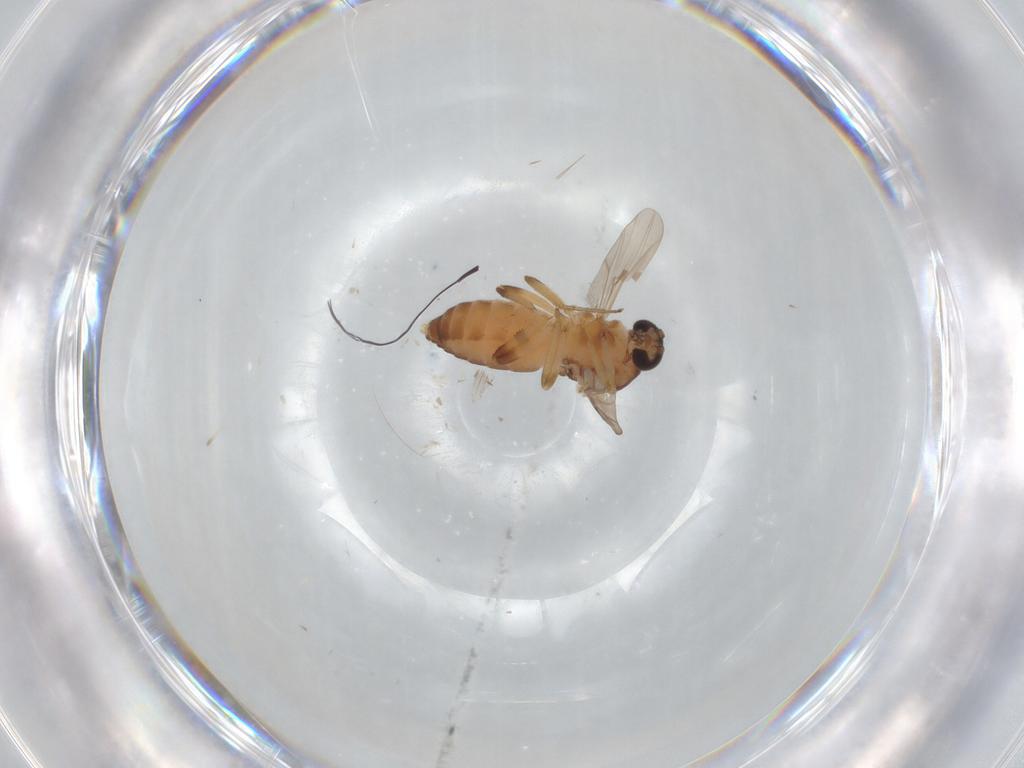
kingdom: Animalia
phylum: Arthropoda
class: Insecta
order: Diptera
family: Ceratopogonidae
